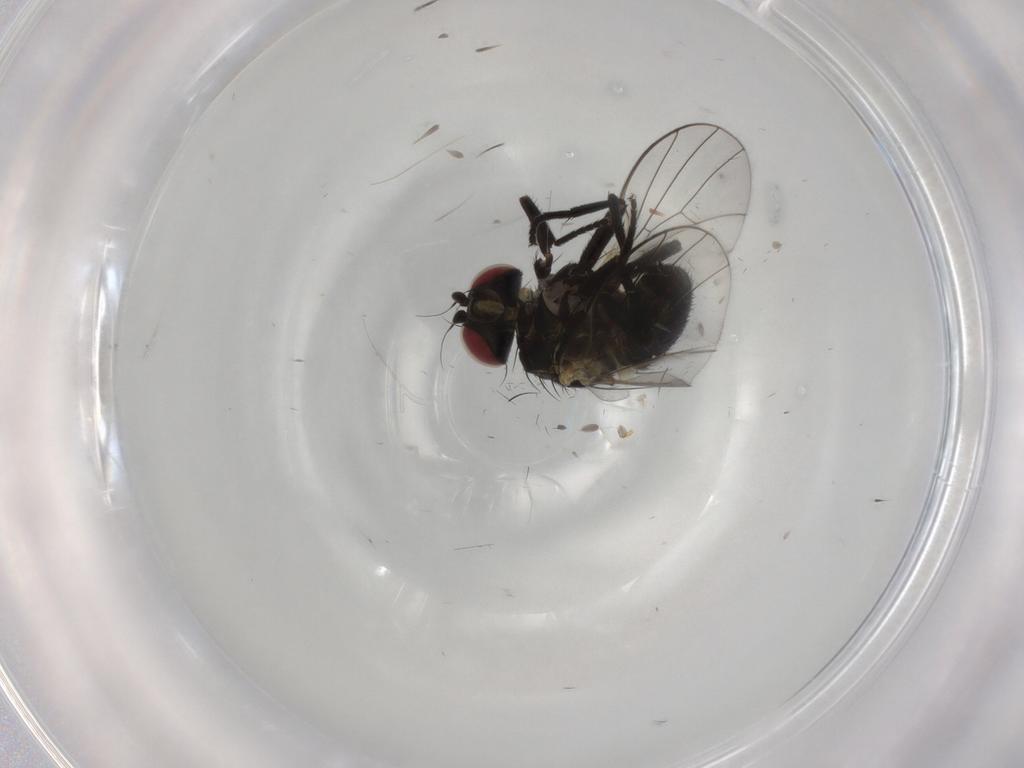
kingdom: Animalia
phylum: Arthropoda
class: Insecta
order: Diptera
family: Agromyzidae
